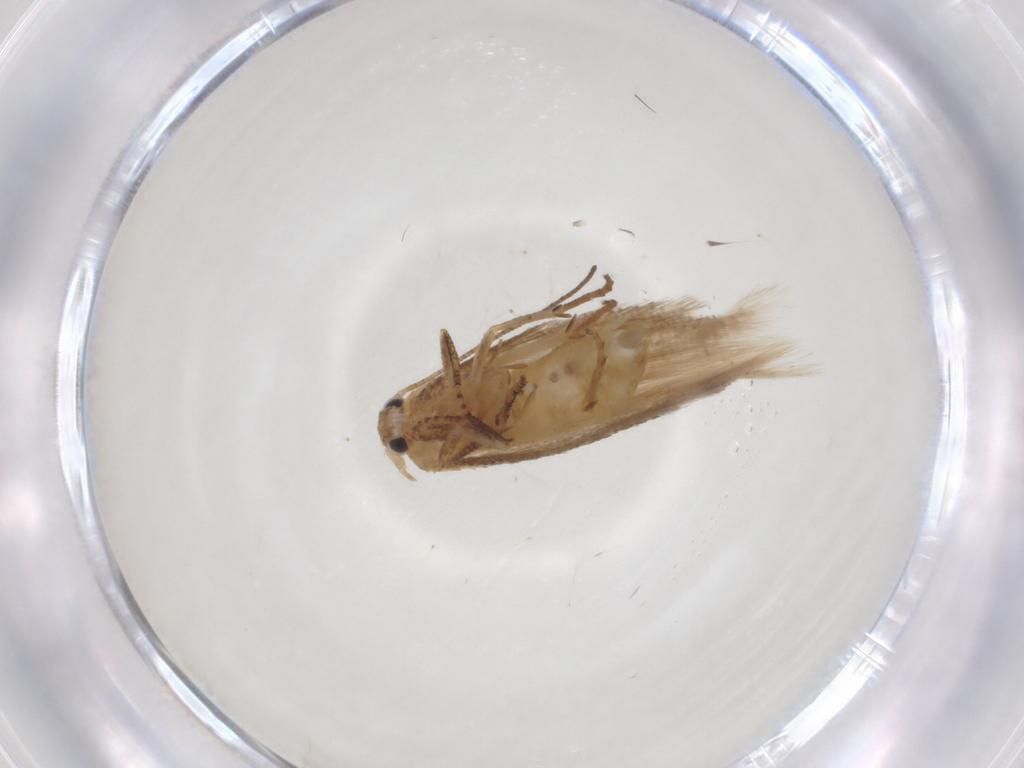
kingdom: Animalia
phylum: Arthropoda
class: Insecta
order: Lepidoptera
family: Bucculatricidae
